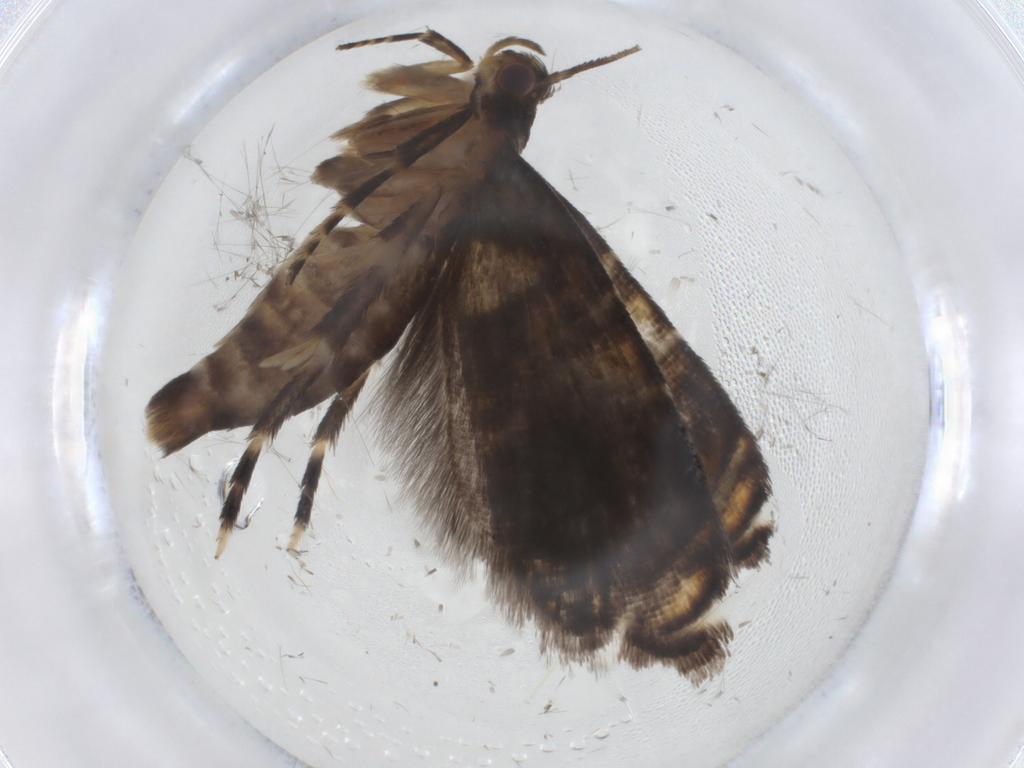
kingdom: Animalia
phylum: Arthropoda
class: Insecta
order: Lepidoptera
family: Glyphipterigidae
